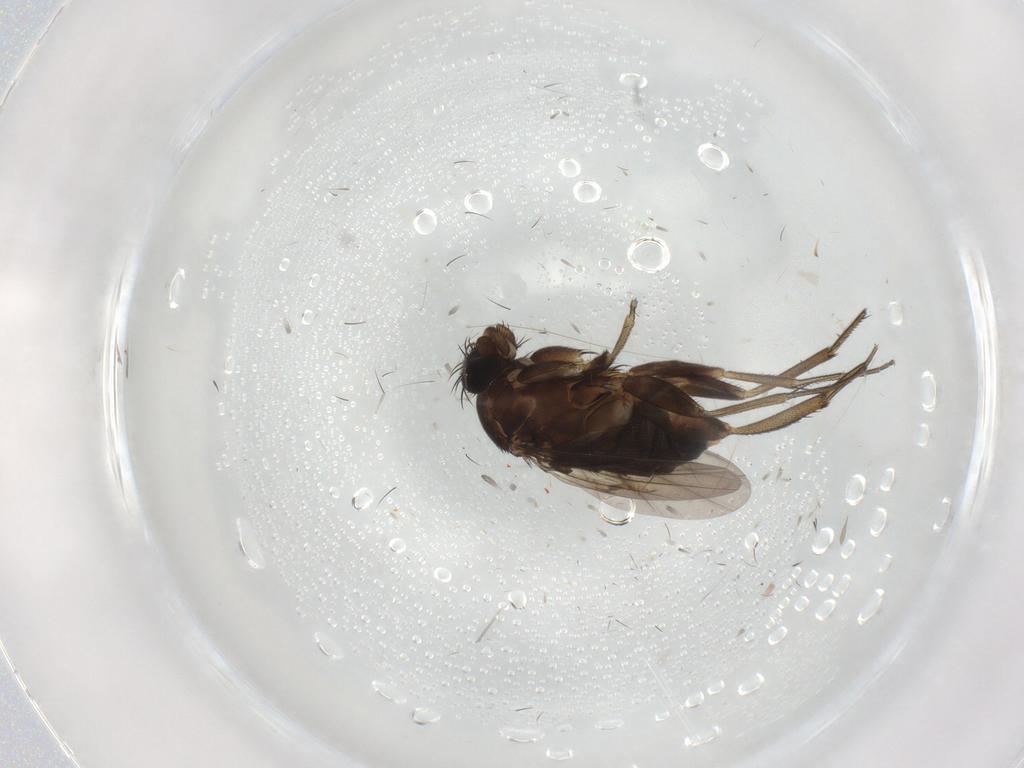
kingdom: Animalia
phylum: Arthropoda
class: Insecta
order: Diptera
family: Phoridae
